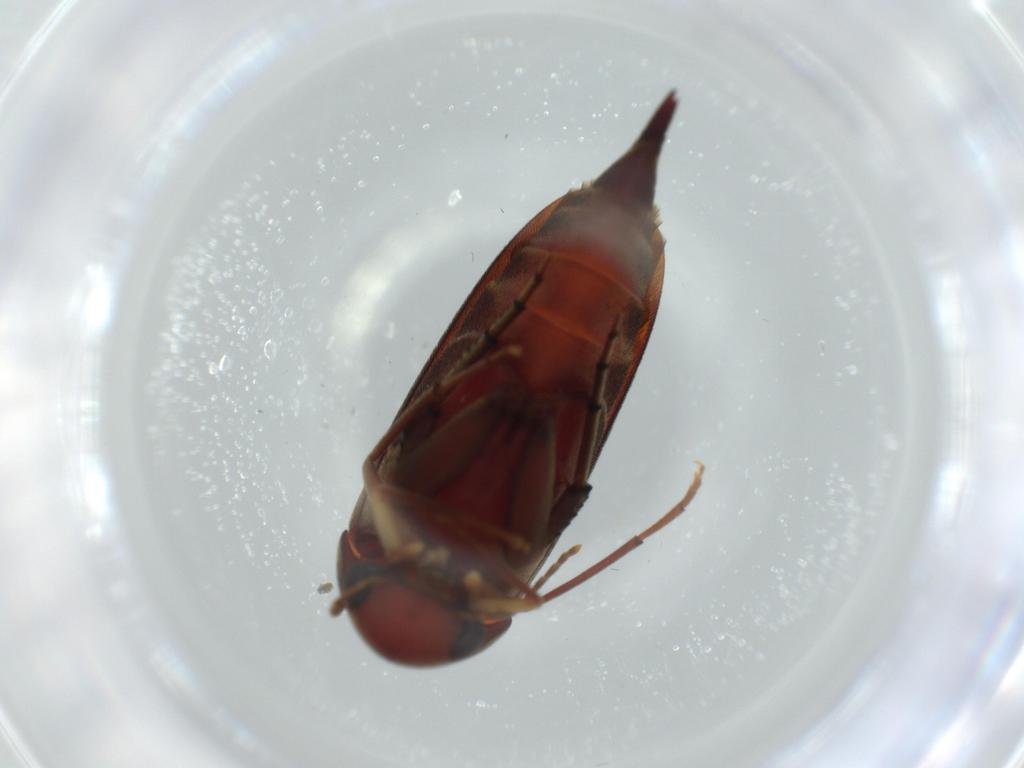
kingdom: Animalia
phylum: Arthropoda
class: Insecta
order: Coleoptera
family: Mordellidae
